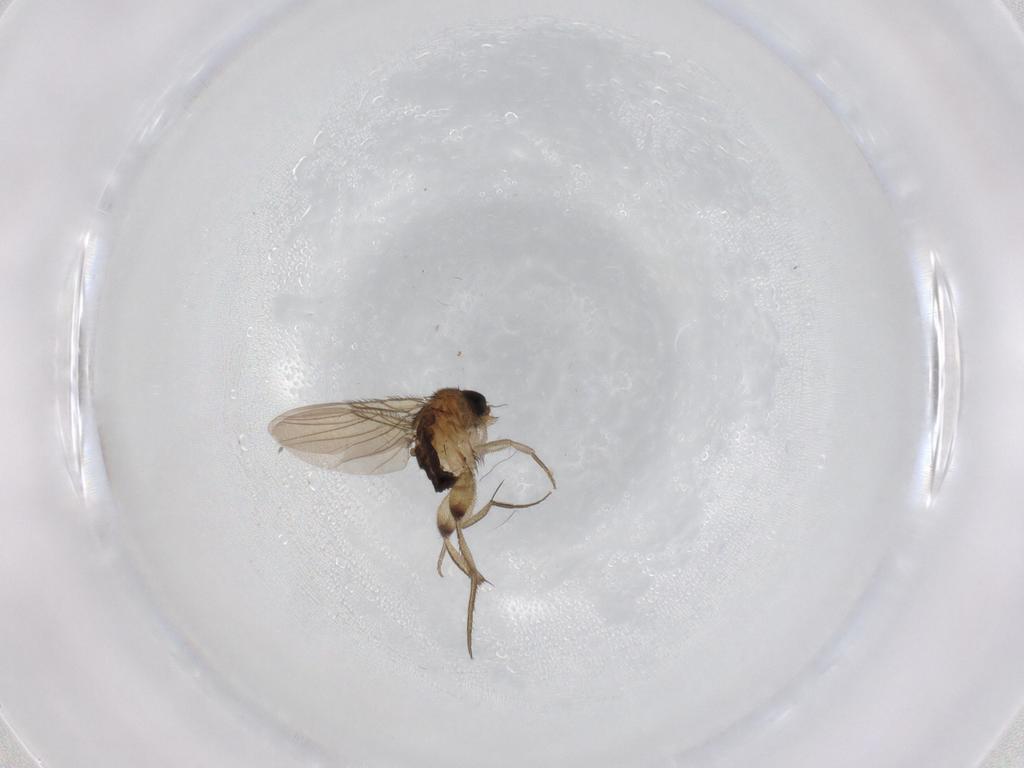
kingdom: Animalia
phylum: Arthropoda
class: Insecta
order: Diptera
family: Phoridae
